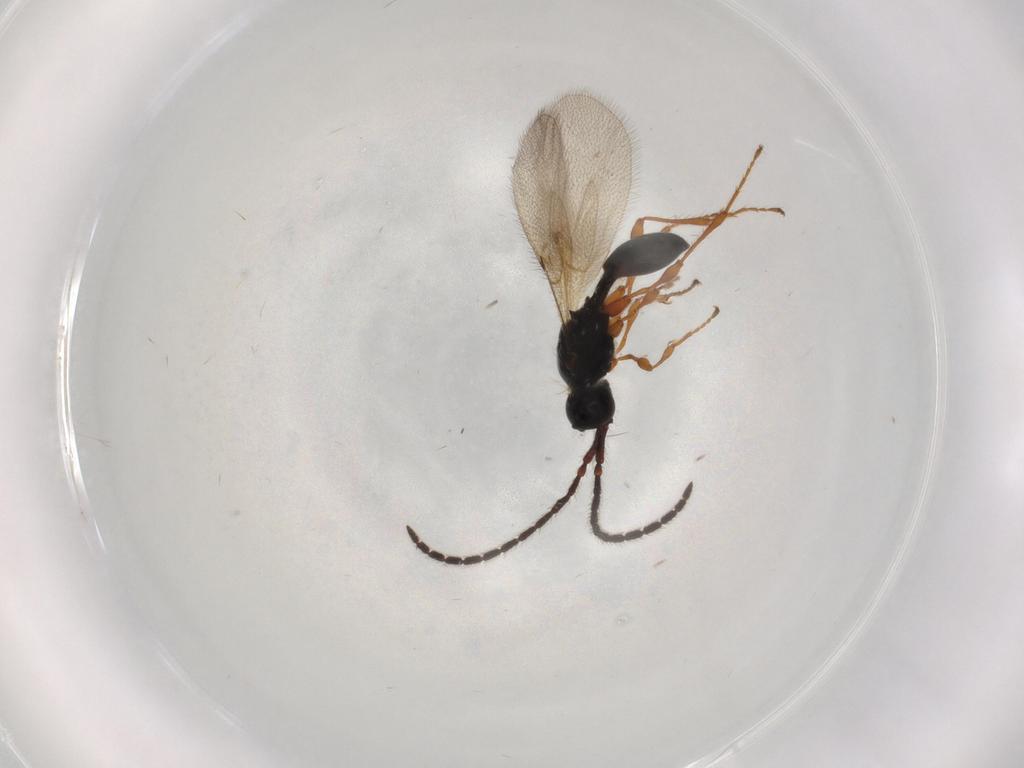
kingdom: Animalia
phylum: Arthropoda
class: Insecta
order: Hymenoptera
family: Diapriidae
